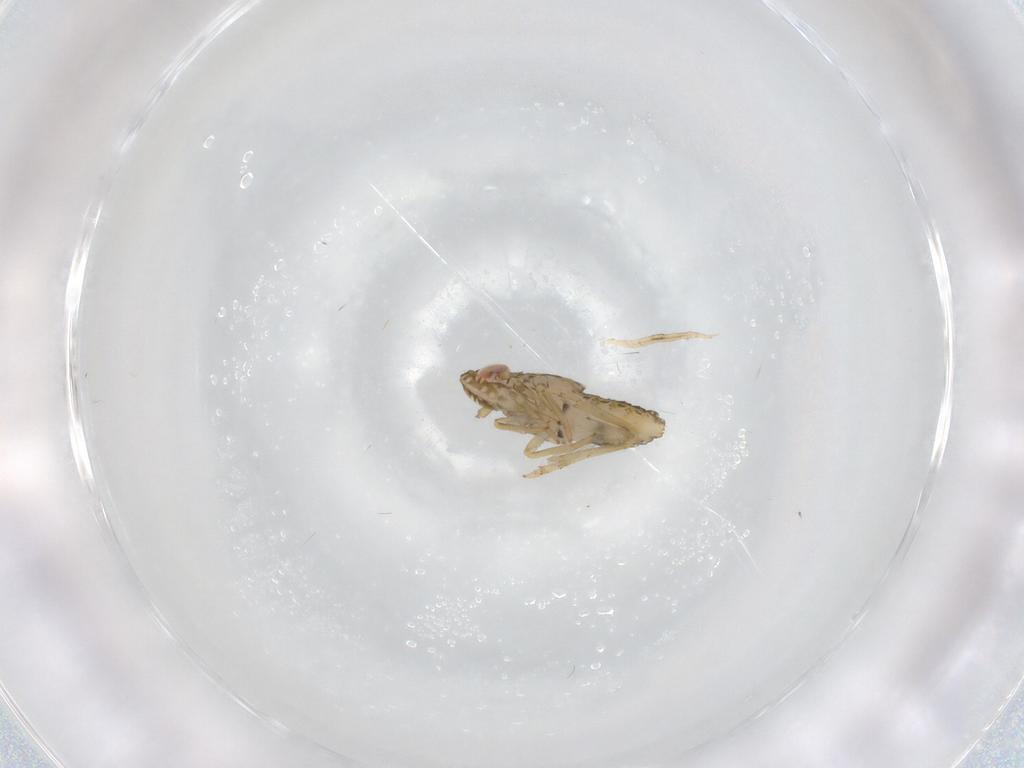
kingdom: Animalia
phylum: Arthropoda
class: Insecta
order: Hemiptera
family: Delphacidae
